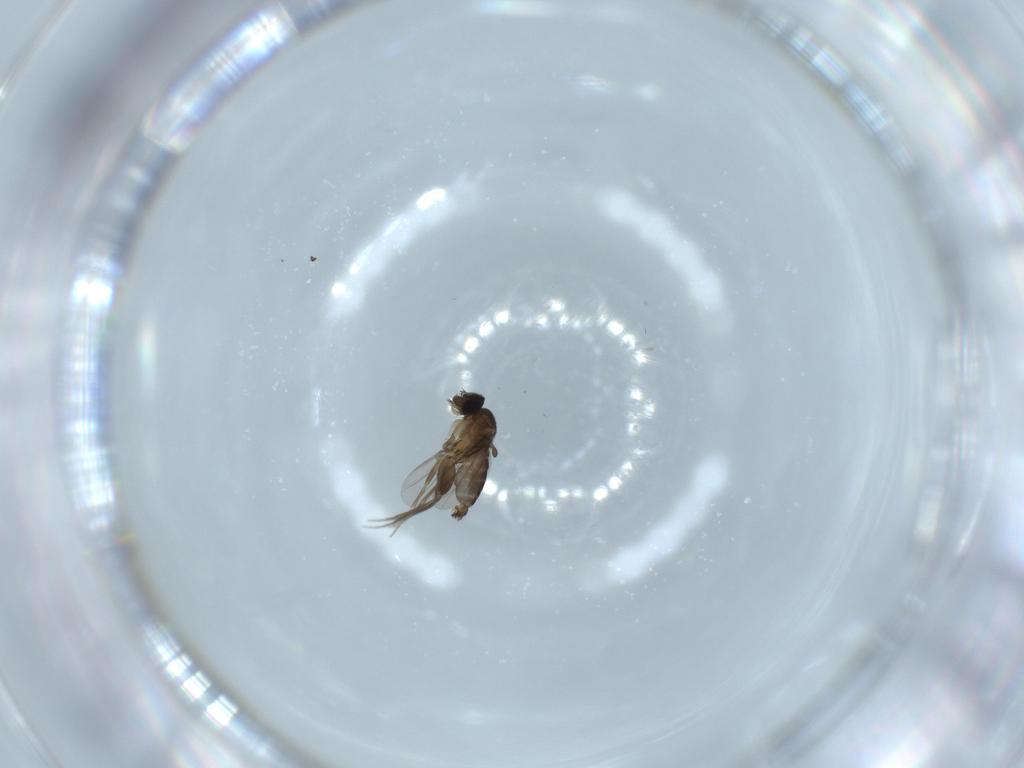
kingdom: Animalia
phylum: Arthropoda
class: Insecta
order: Diptera
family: Phoridae
